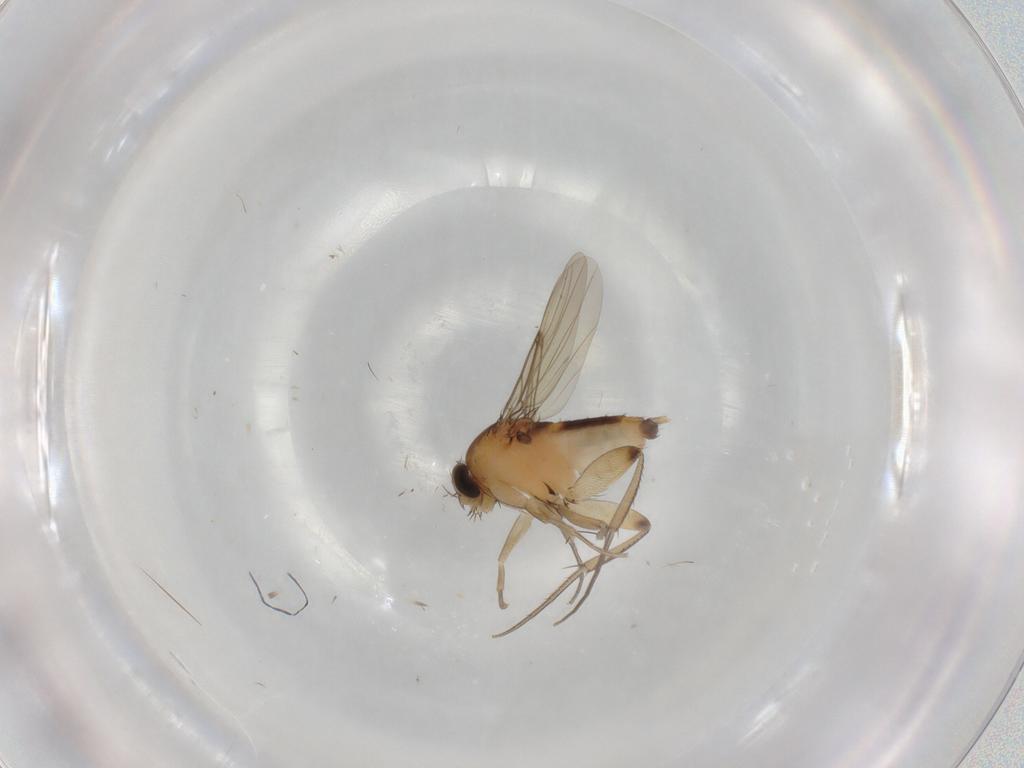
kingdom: Animalia
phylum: Arthropoda
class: Insecta
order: Diptera
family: Phoridae
